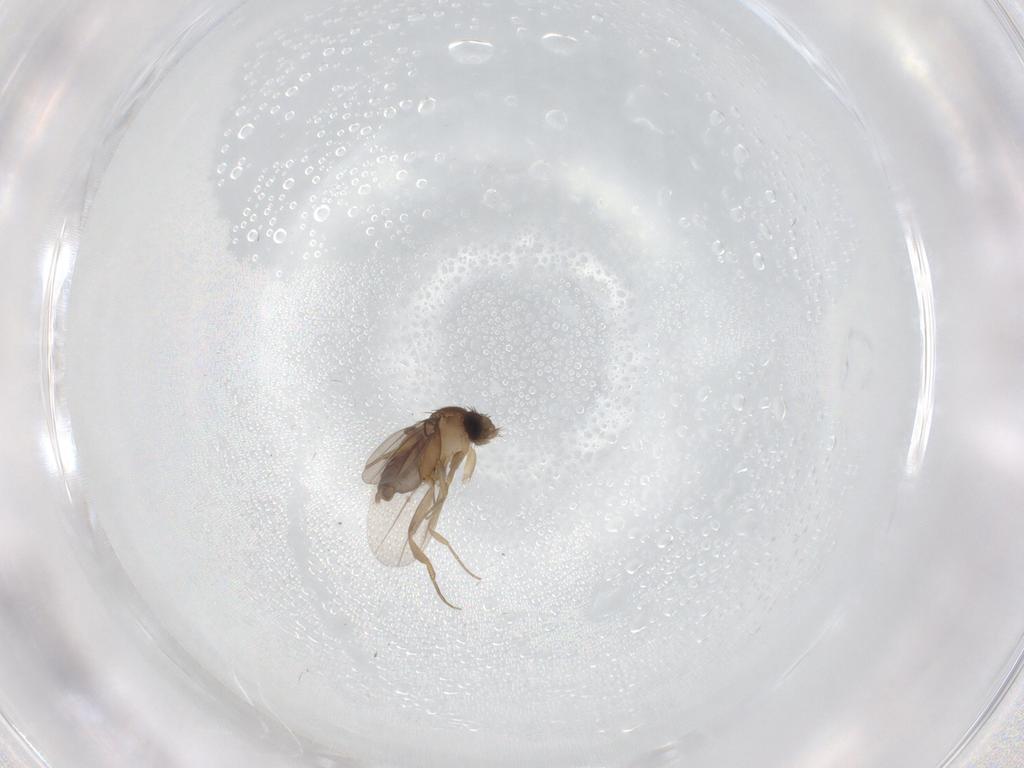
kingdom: Animalia
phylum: Arthropoda
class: Insecta
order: Diptera
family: Phoridae
